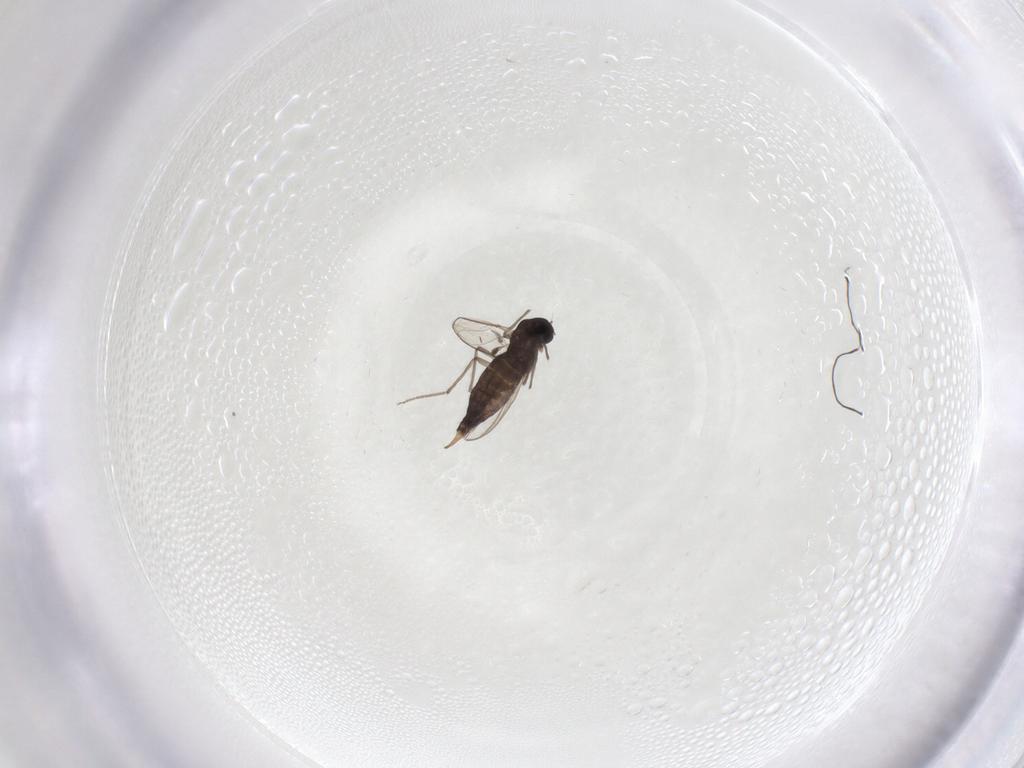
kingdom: Animalia
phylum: Arthropoda
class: Insecta
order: Diptera
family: Chironomidae
